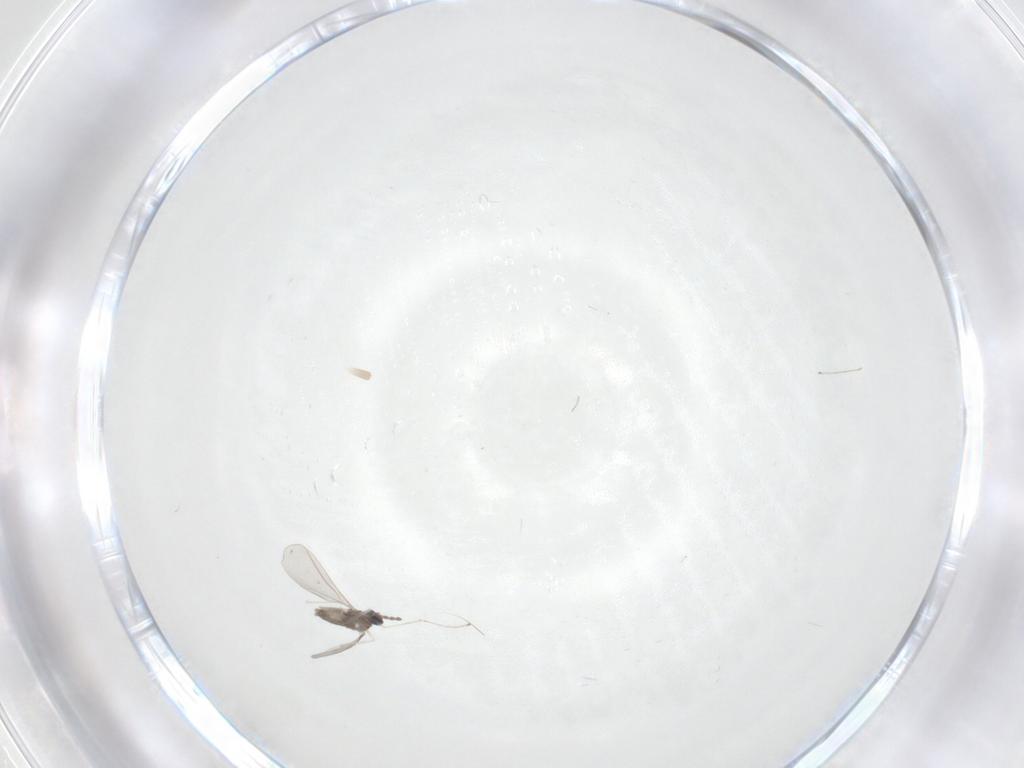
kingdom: Animalia
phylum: Arthropoda
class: Insecta
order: Diptera
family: Cecidomyiidae
